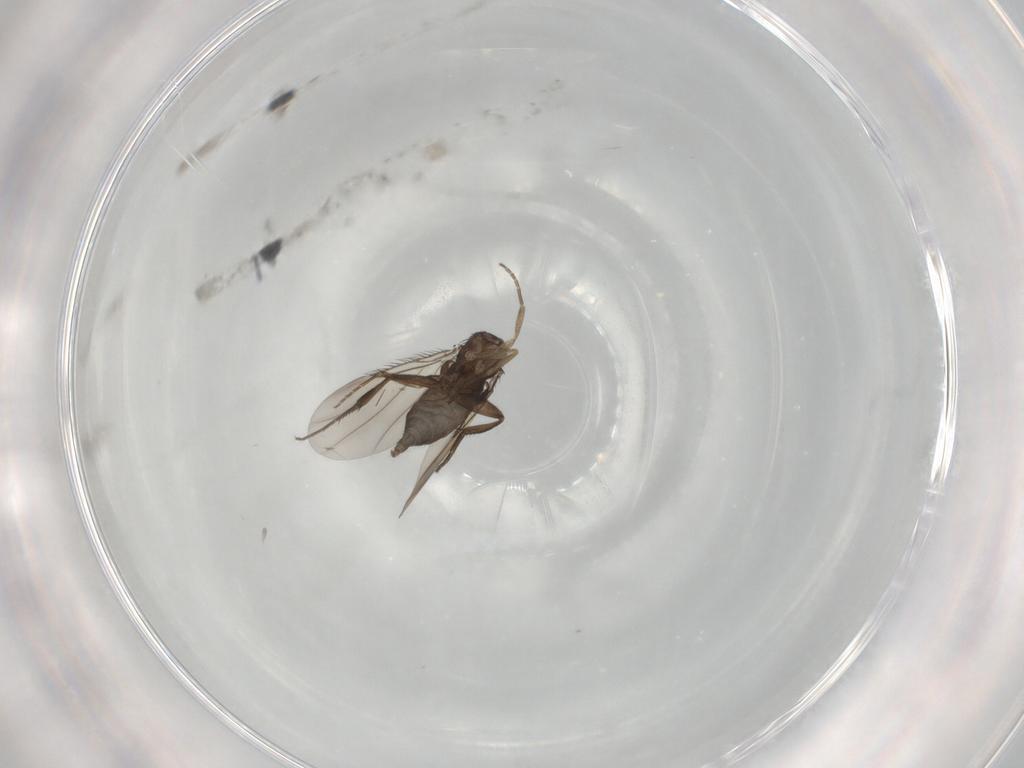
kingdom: Animalia
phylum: Arthropoda
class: Insecta
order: Diptera
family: Phoridae
